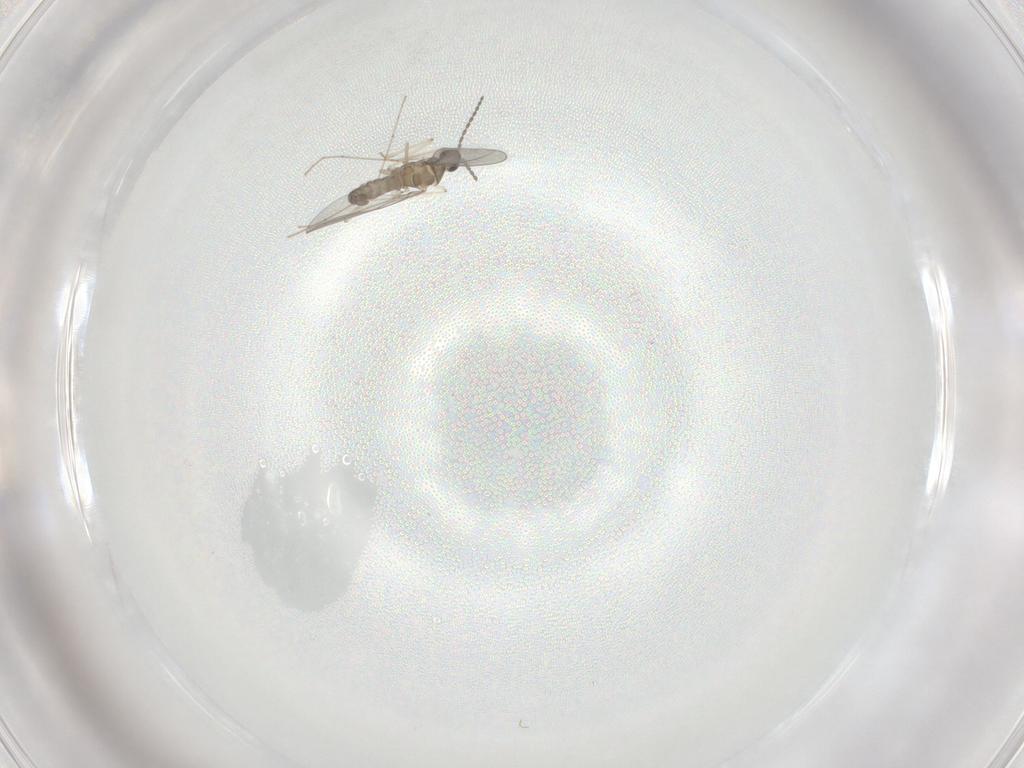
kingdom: Animalia
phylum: Arthropoda
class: Insecta
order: Diptera
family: Cecidomyiidae
